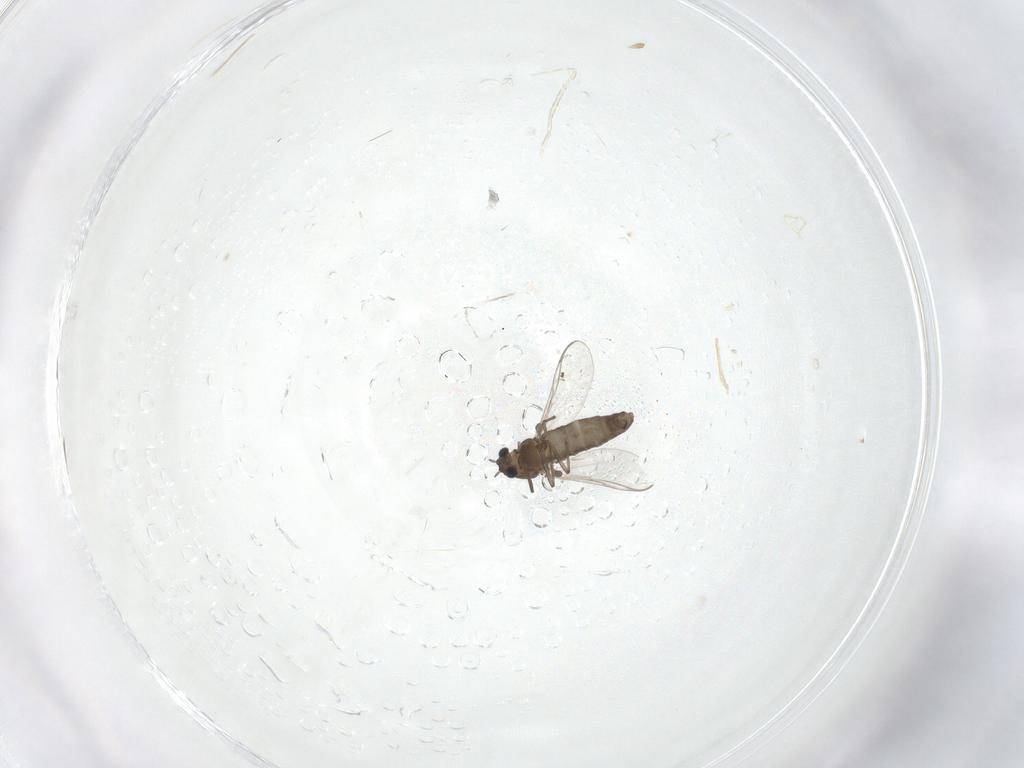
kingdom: Animalia
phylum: Arthropoda
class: Insecta
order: Diptera
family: Chironomidae
